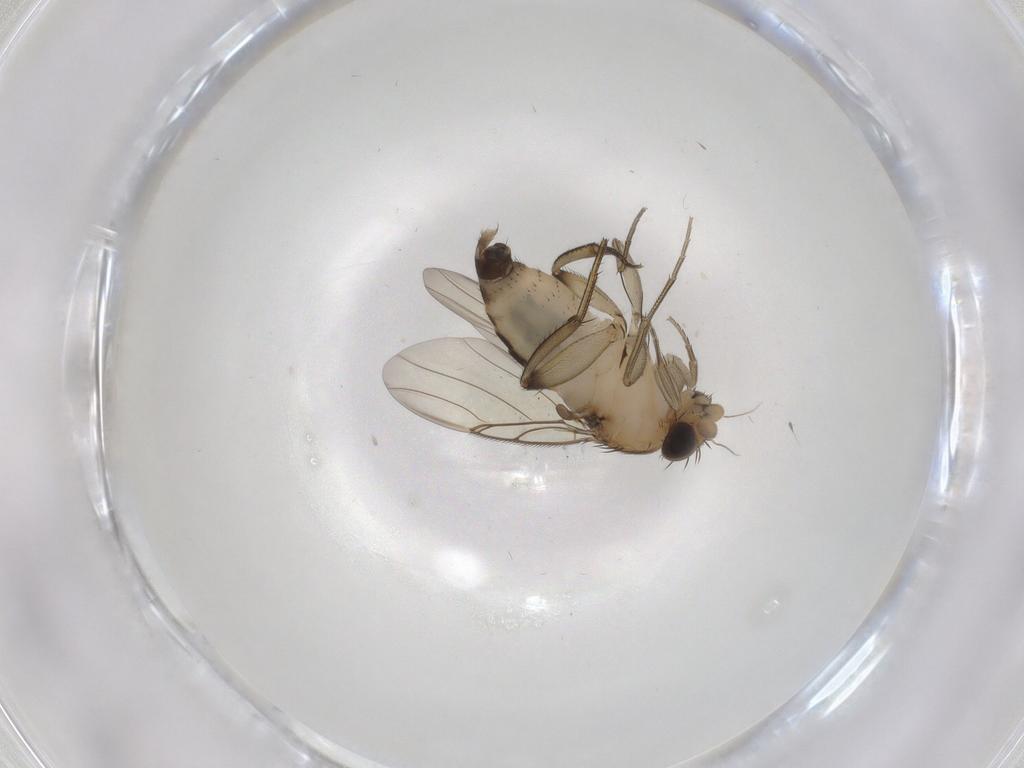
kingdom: Animalia
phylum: Arthropoda
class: Insecta
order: Diptera
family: Phoridae
